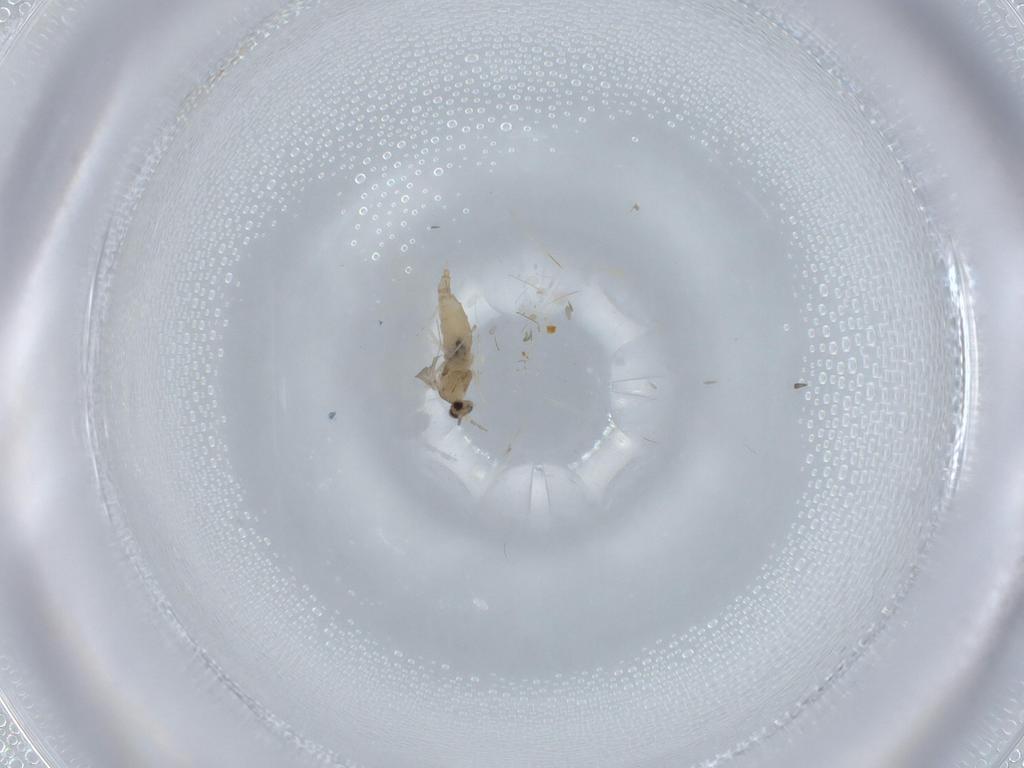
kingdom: Animalia
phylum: Arthropoda
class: Insecta
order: Diptera
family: Cecidomyiidae
